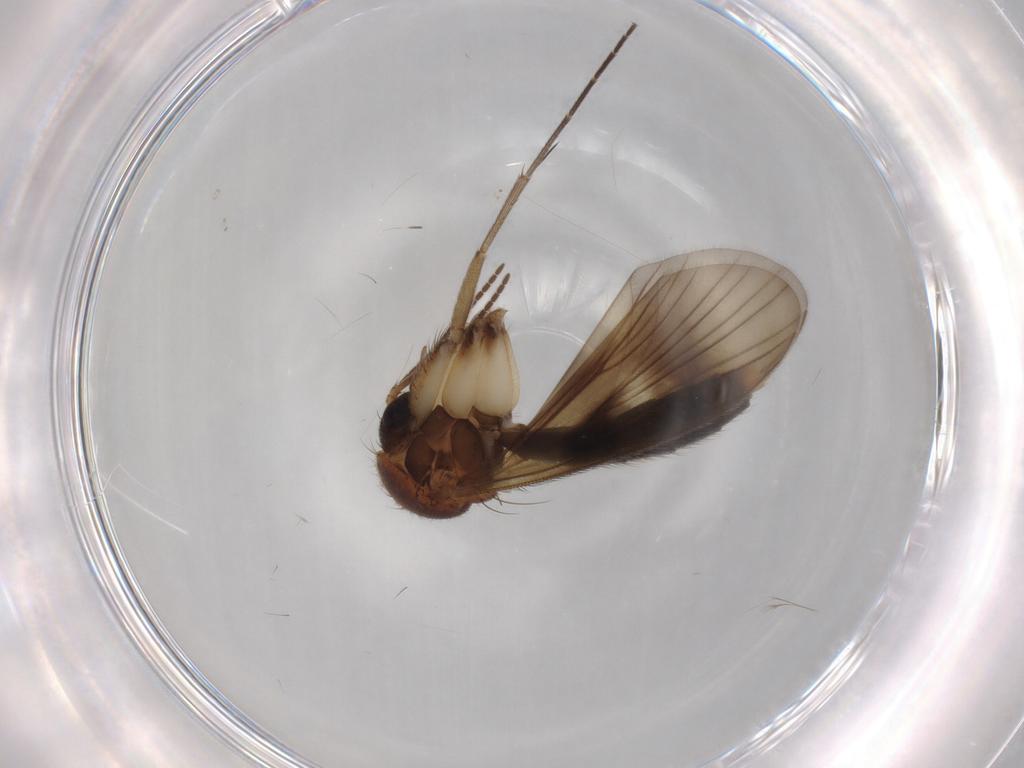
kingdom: Animalia
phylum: Arthropoda
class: Insecta
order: Diptera
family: Mycetophilidae
